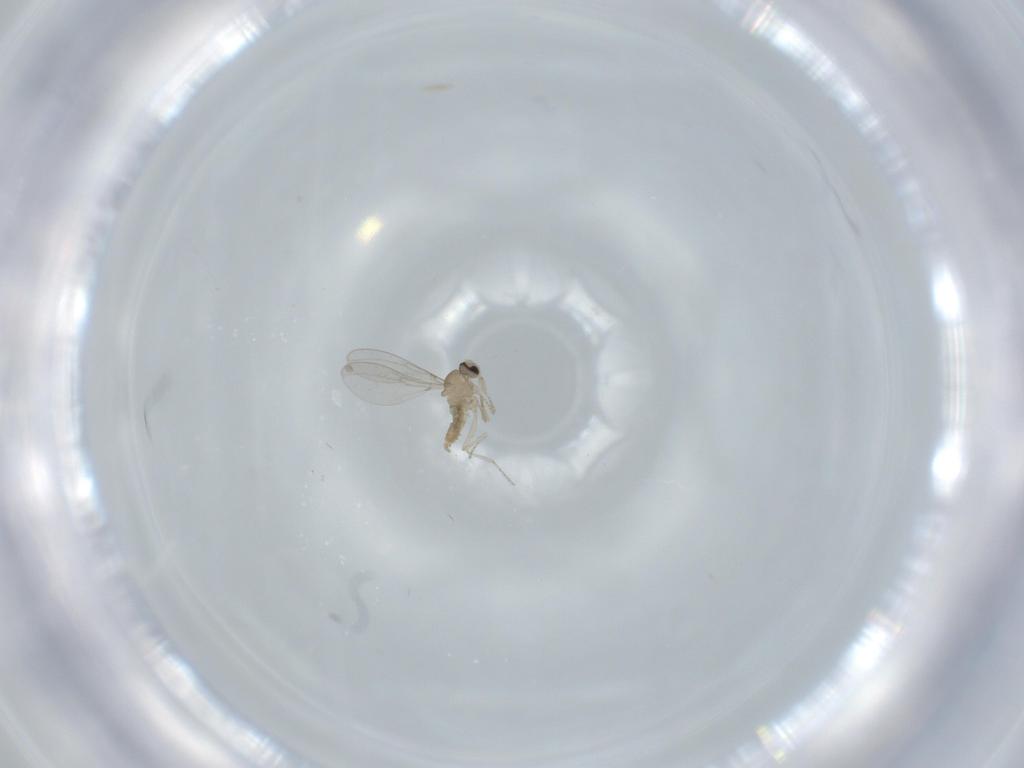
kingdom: Animalia
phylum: Arthropoda
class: Insecta
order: Diptera
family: Cecidomyiidae
